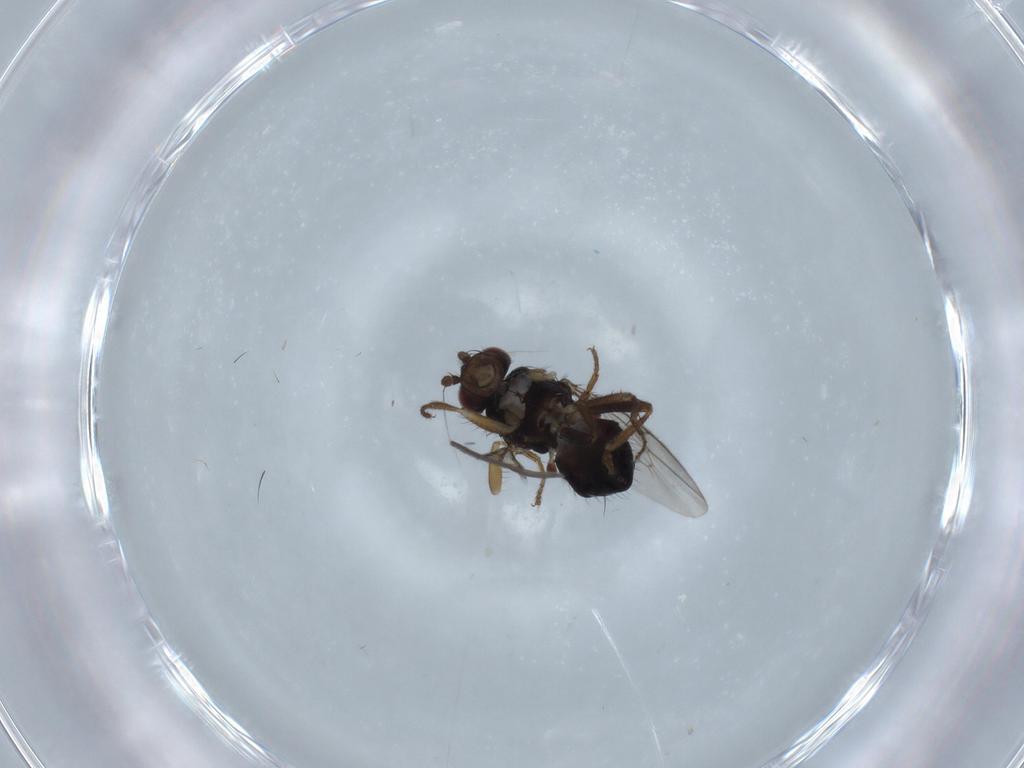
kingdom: Animalia
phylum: Arthropoda
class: Insecta
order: Diptera
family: Sphaeroceridae
